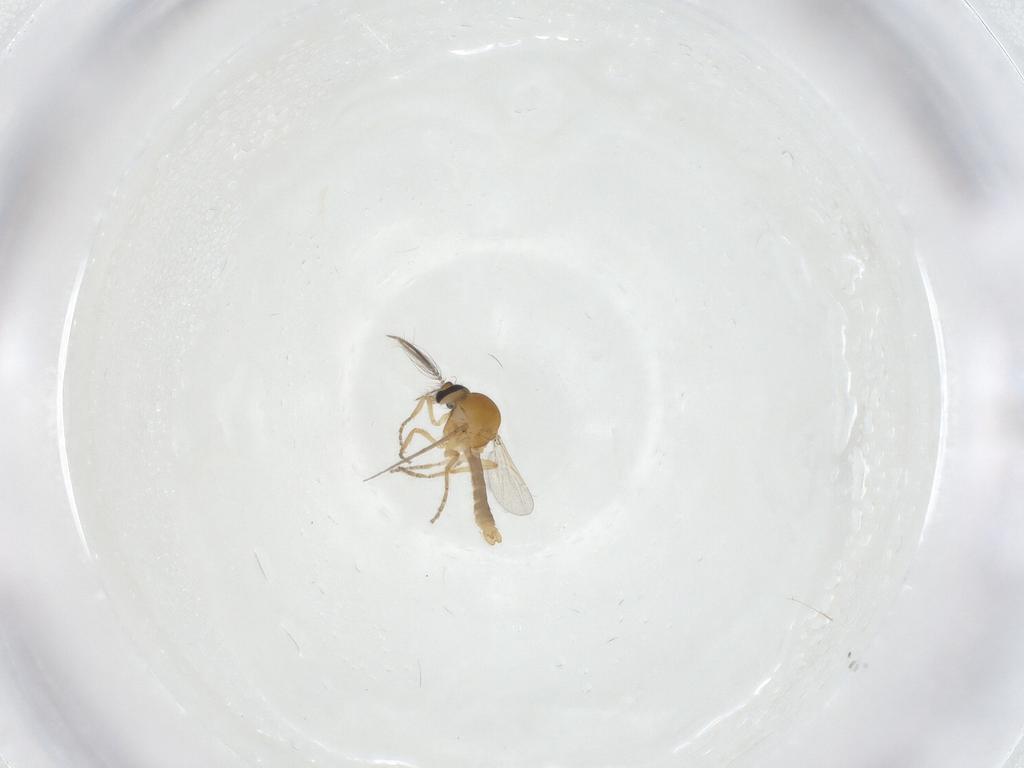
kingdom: Animalia
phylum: Arthropoda
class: Insecta
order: Diptera
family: Ceratopogonidae
